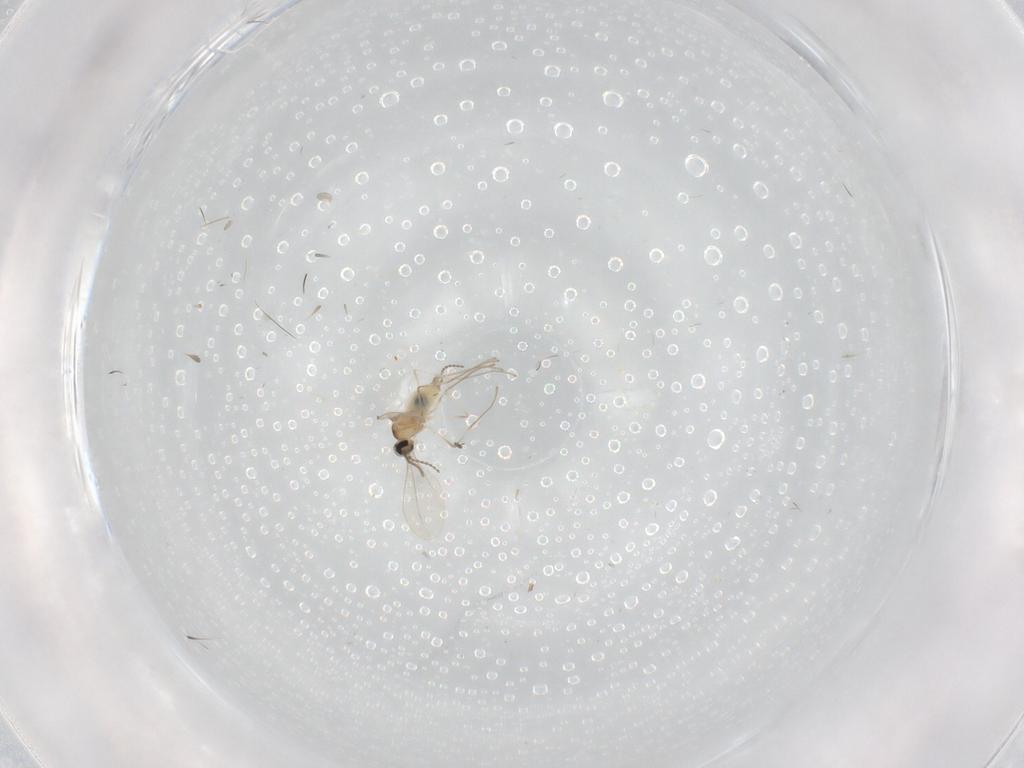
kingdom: Animalia
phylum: Arthropoda
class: Insecta
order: Diptera
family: Cecidomyiidae
